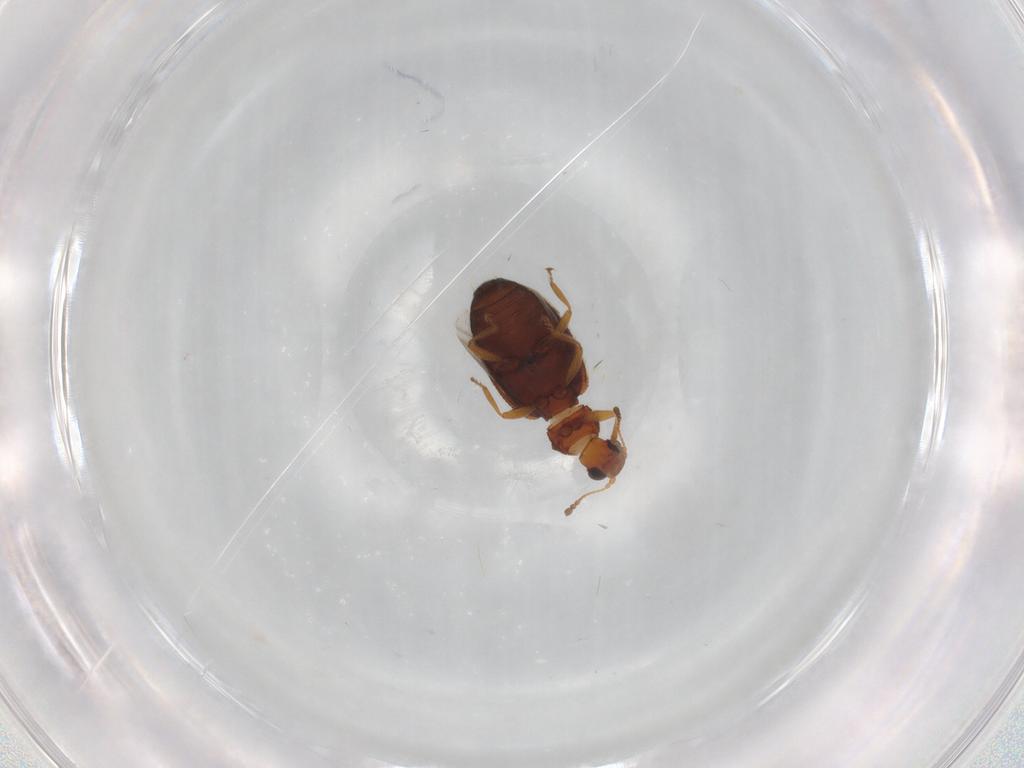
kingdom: Animalia
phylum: Arthropoda
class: Insecta
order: Coleoptera
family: Latridiidae
